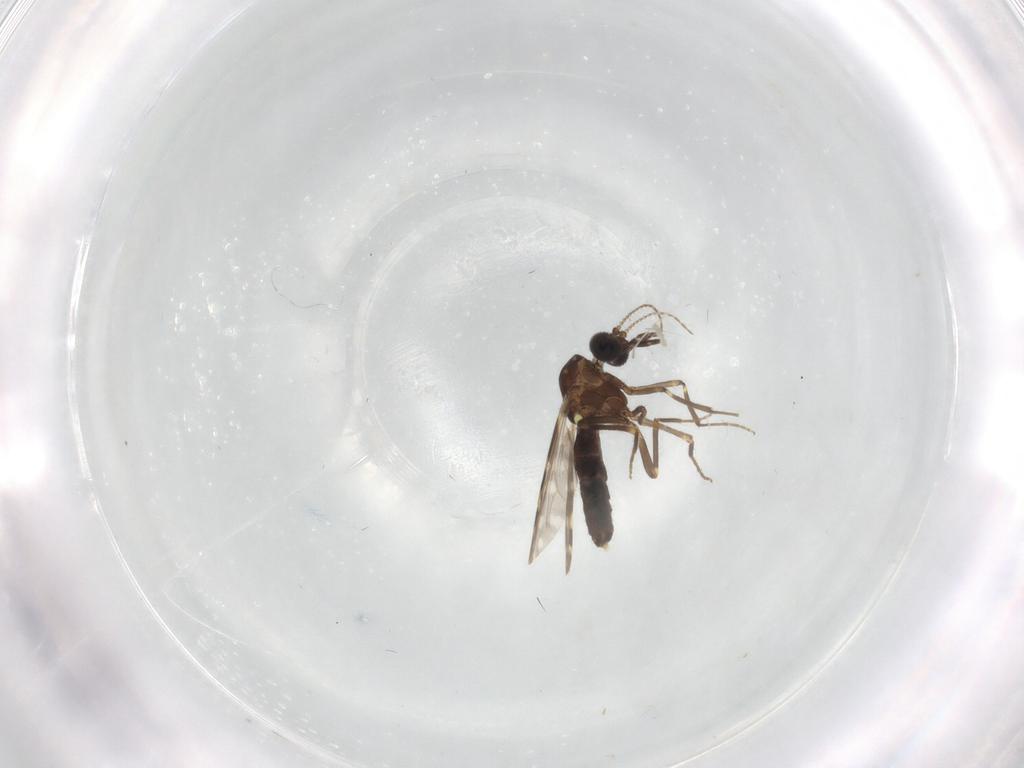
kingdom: Animalia
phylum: Arthropoda
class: Insecta
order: Diptera
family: Ceratopogonidae
